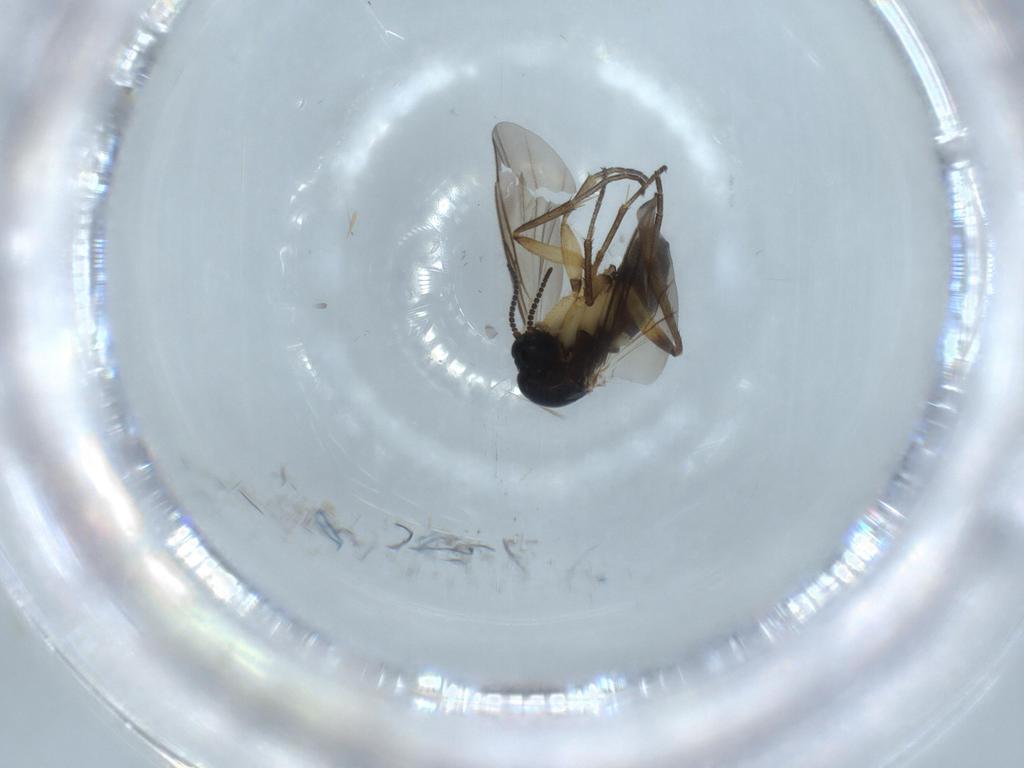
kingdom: Animalia
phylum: Arthropoda
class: Insecta
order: Diptera
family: Mycetophilidae
